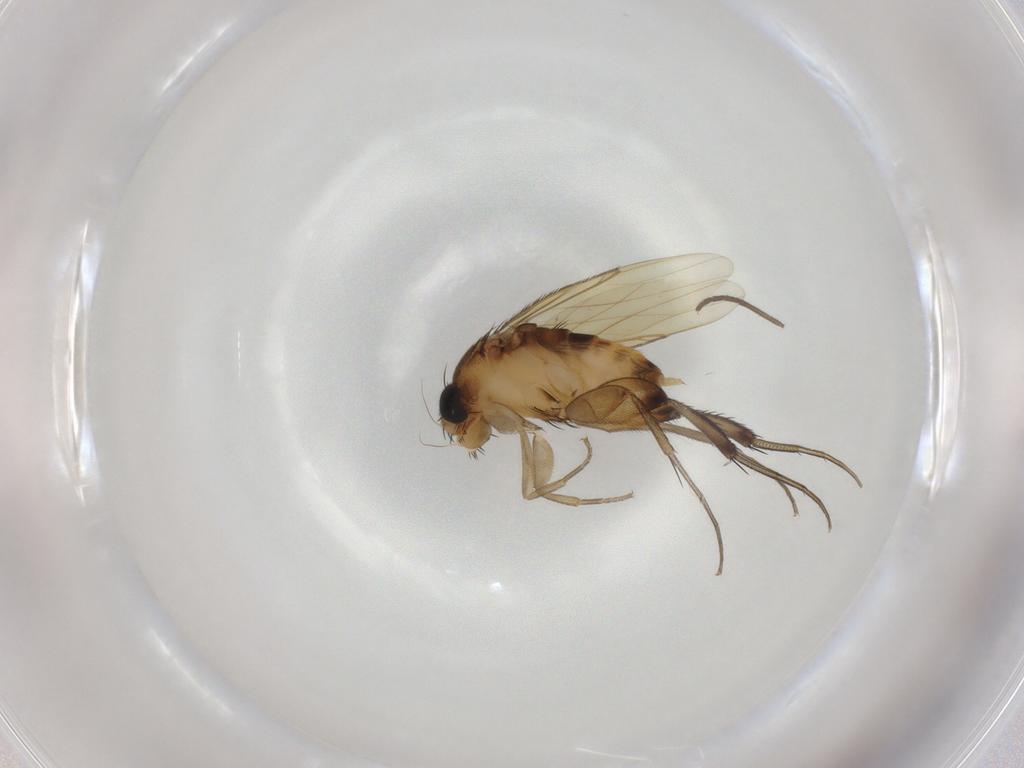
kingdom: Animalia
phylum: Arthropoda
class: Insecta
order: Diptera
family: Phoridae
